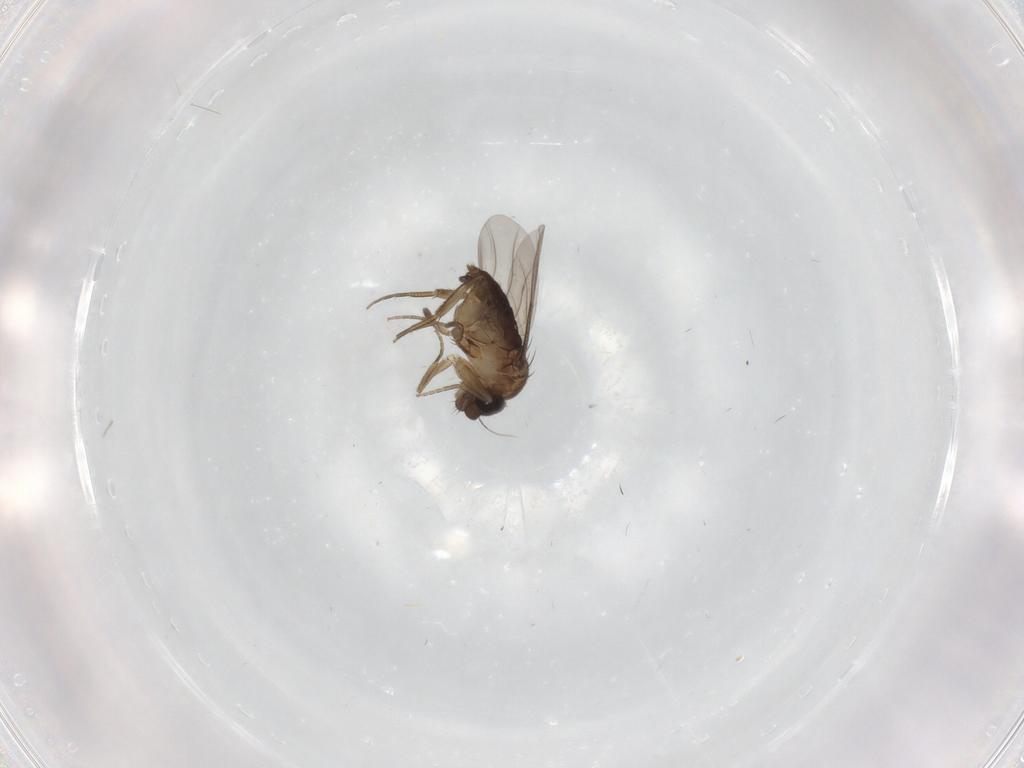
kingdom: Animalia
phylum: Arthropoda
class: Insecta
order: Diptera
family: Phoridae
